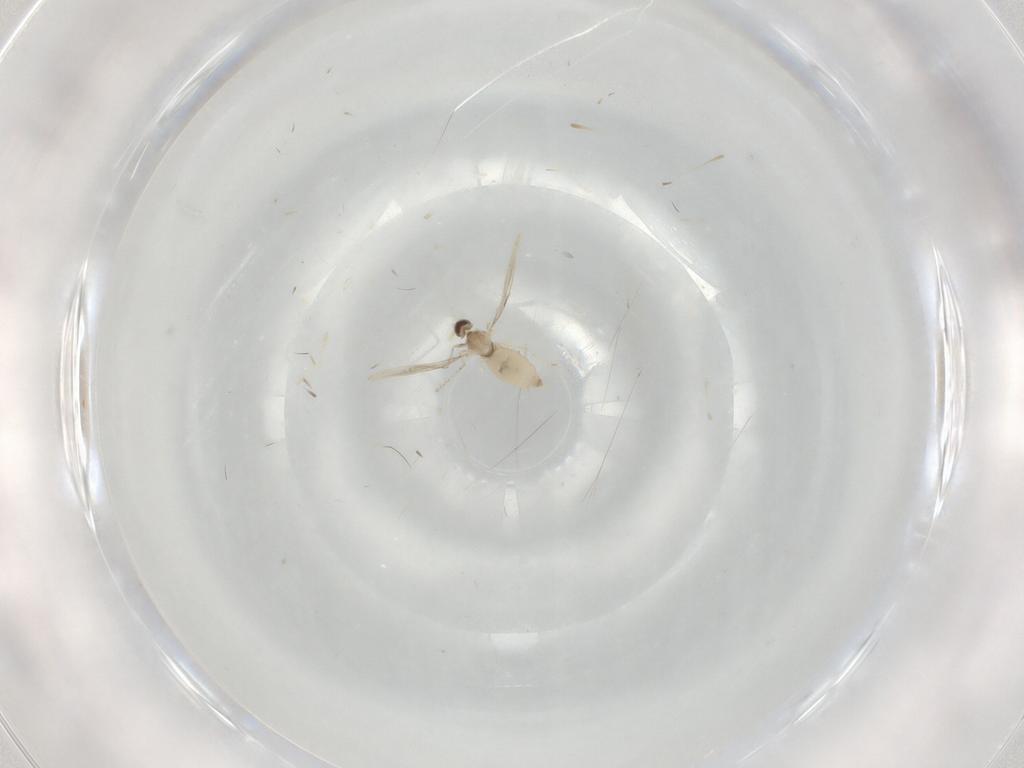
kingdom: Animalia
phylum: Arthropoda
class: Insecta
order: Diptera
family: Cecidomyiidae
